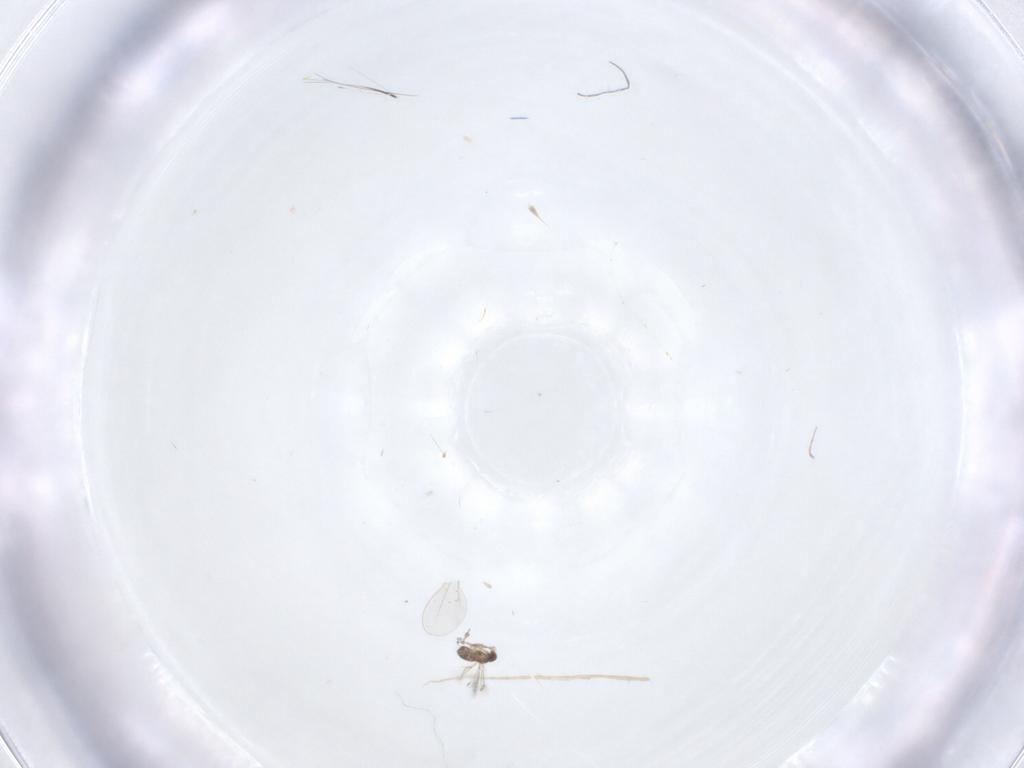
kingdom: Animalia
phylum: Arthropoda
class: Insecta
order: Diptera
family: Cecidomyiidae
